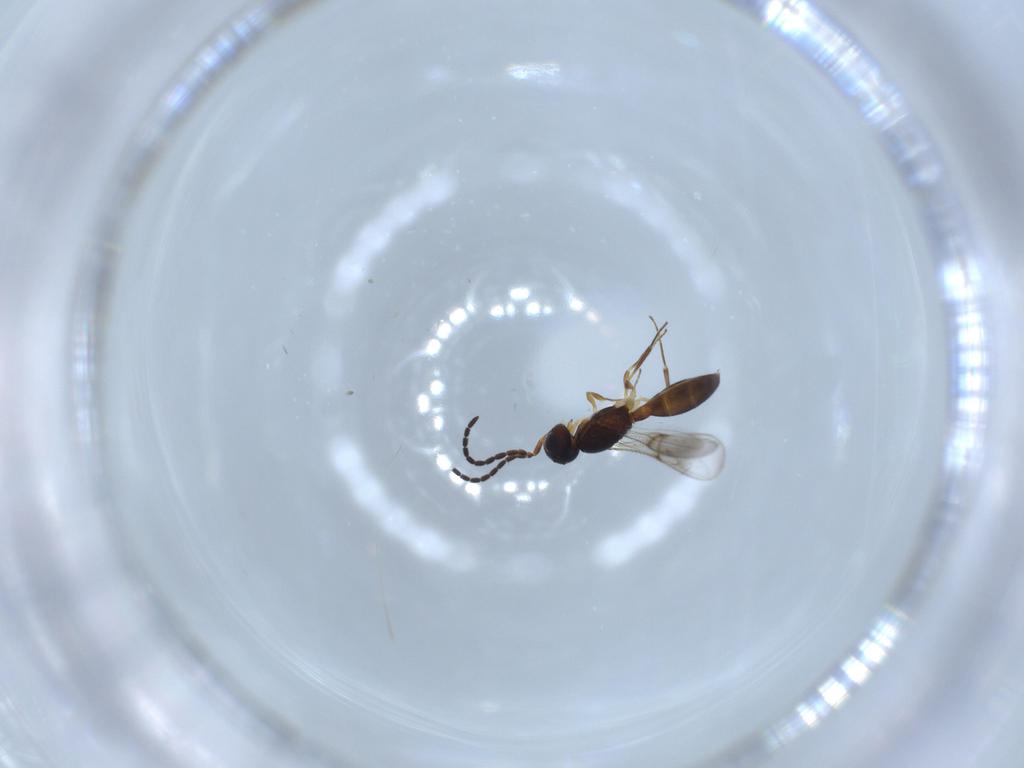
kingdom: Animalia
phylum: Arthropoda
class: Insecta
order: Hymenoptera
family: Scelionidae
